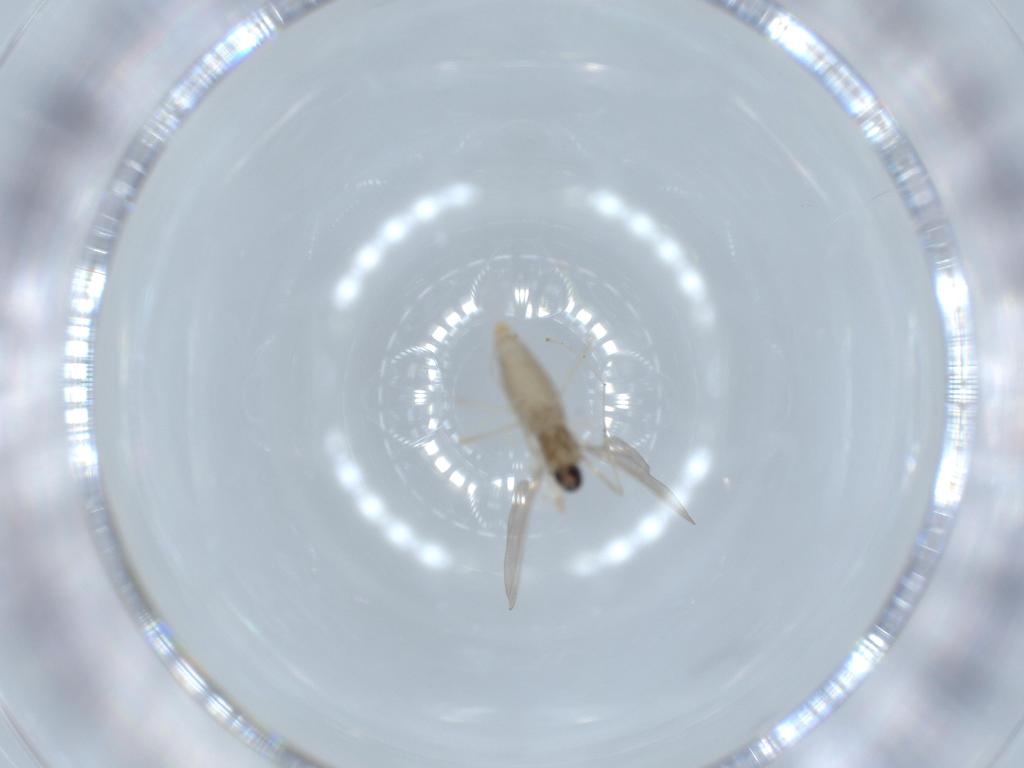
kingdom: Animalia
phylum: Arthropoda
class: Insecta
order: Diptera
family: Cecidomyiidae
